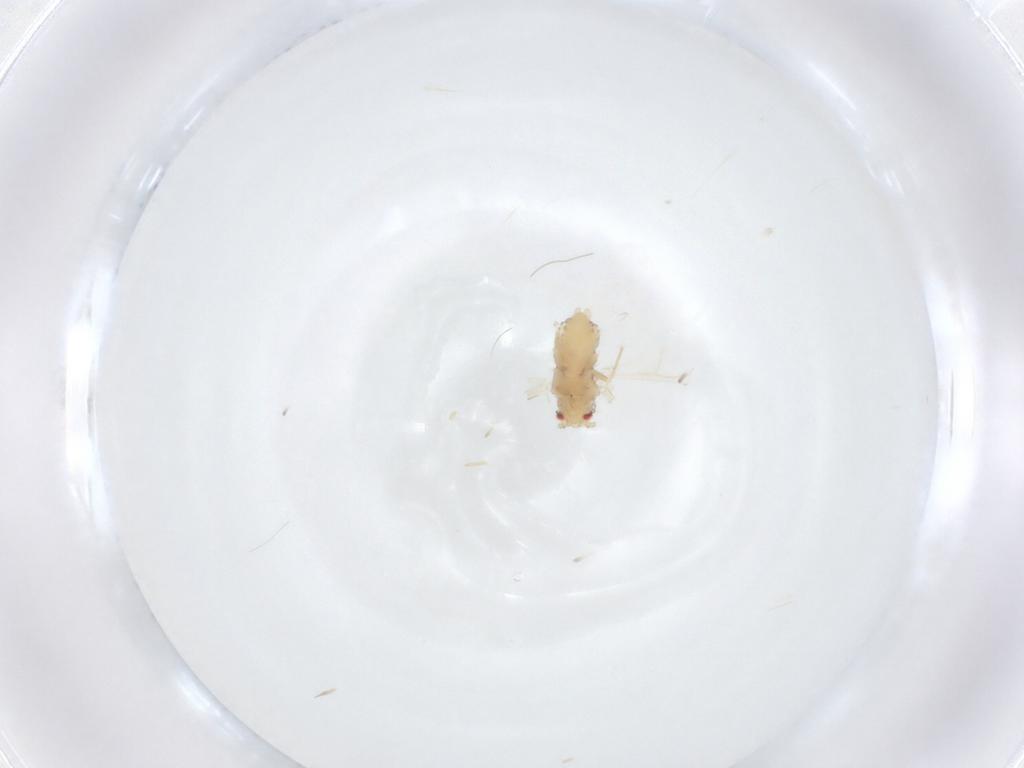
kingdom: Animalia
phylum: Arthropoda
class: Insecta
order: Hemiptera
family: Aphididae
